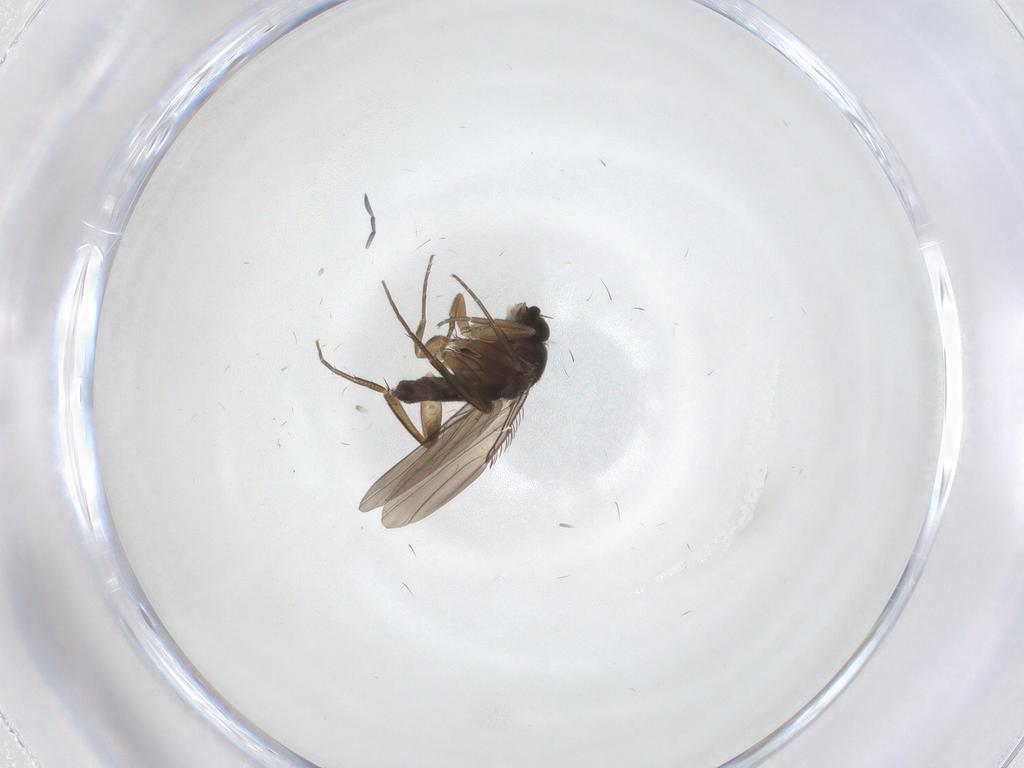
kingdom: Animalia
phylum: Arthropoda
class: Insecta
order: Diptera
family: Phoridae
